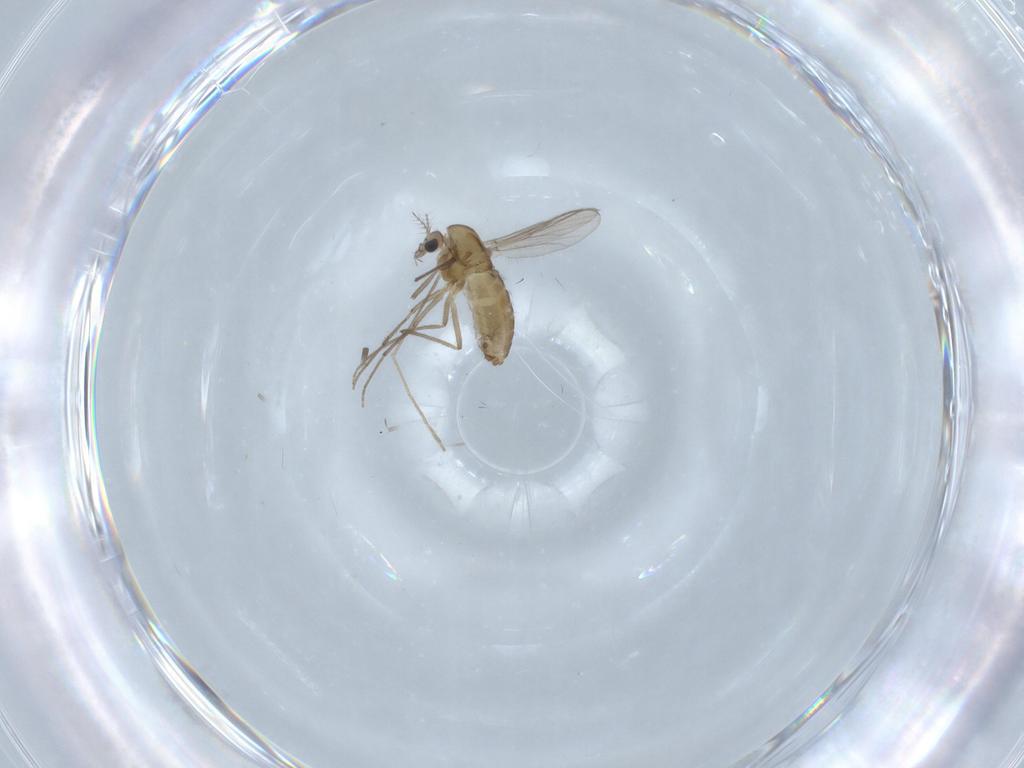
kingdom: Animalia
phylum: Arthropoda
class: Insecta
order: Diptera
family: Chironomidae
